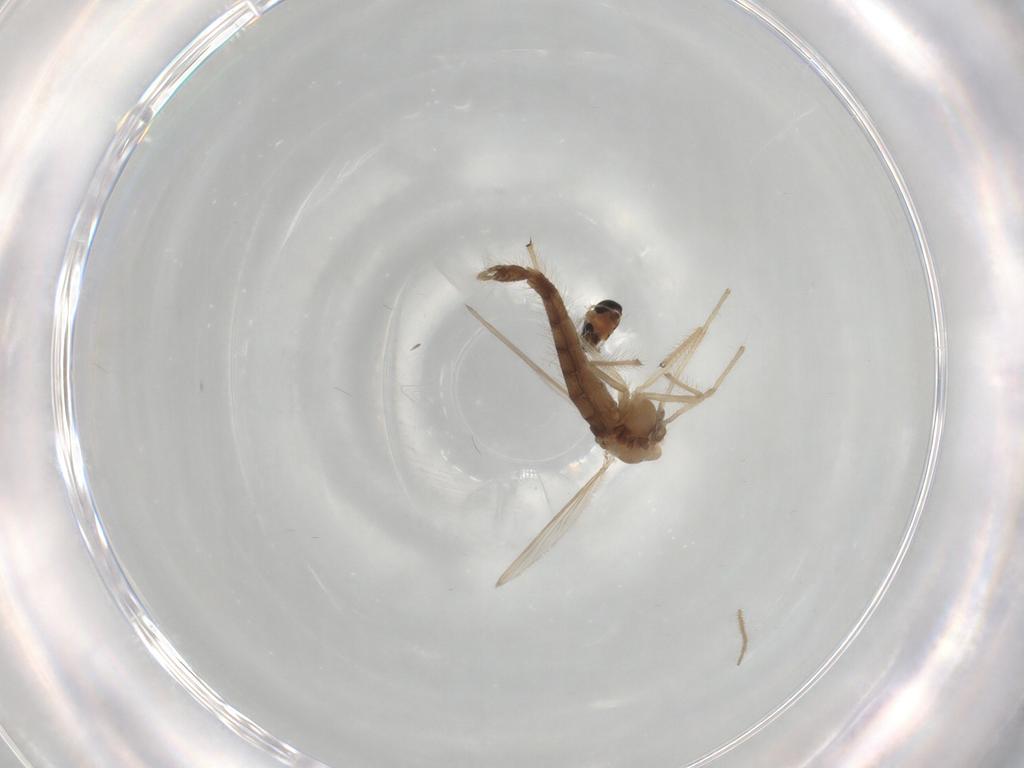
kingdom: Animalia
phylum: Arthropoda
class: Insecta
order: Diptera
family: Chironomidae
